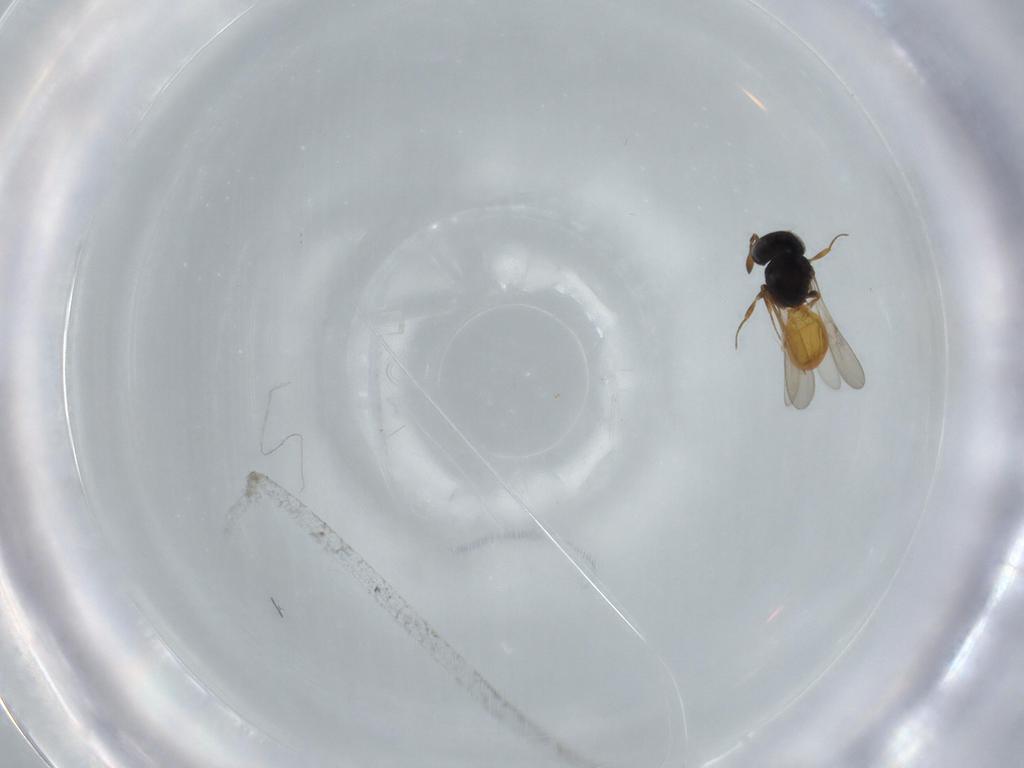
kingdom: Animalia
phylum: Arthropoda
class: Insecta
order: Hymenoptera
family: Scelionidae
